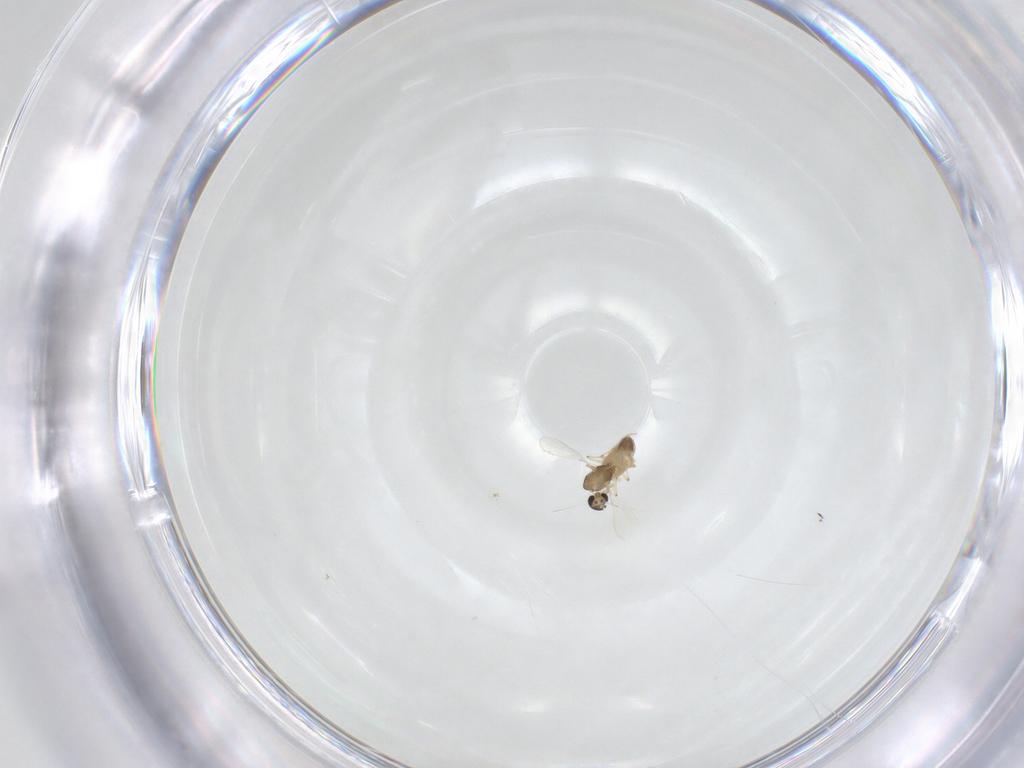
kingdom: Animalia
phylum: Arthropoda
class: Insecta
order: Diptera
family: Chironomidae
